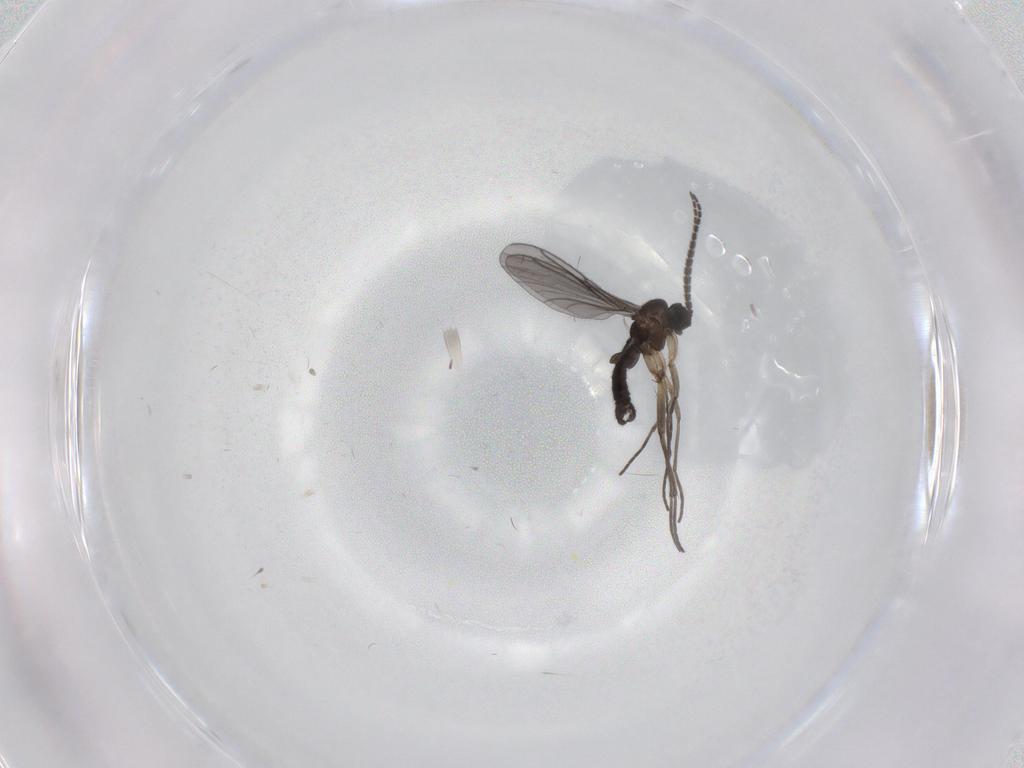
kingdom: Animalia
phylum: Arthropoda
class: Insecta
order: Diptera
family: Sciaridae
